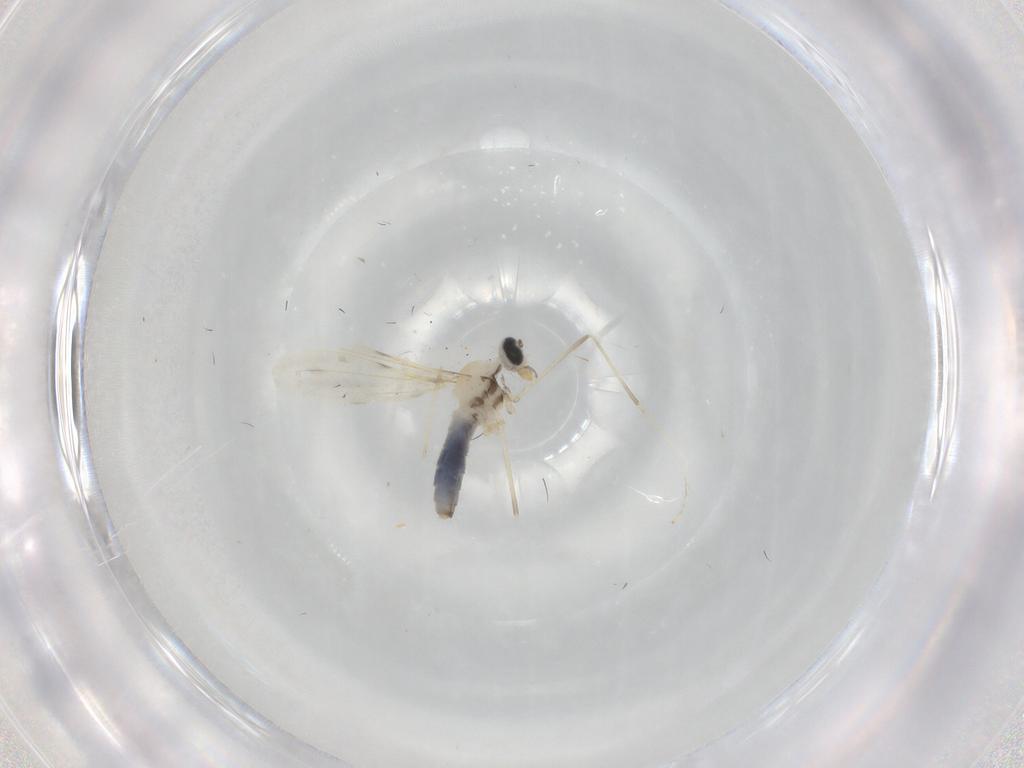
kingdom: Animalia
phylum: Arthropoda
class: Insecta
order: Diptera
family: Cecidomyiidae
